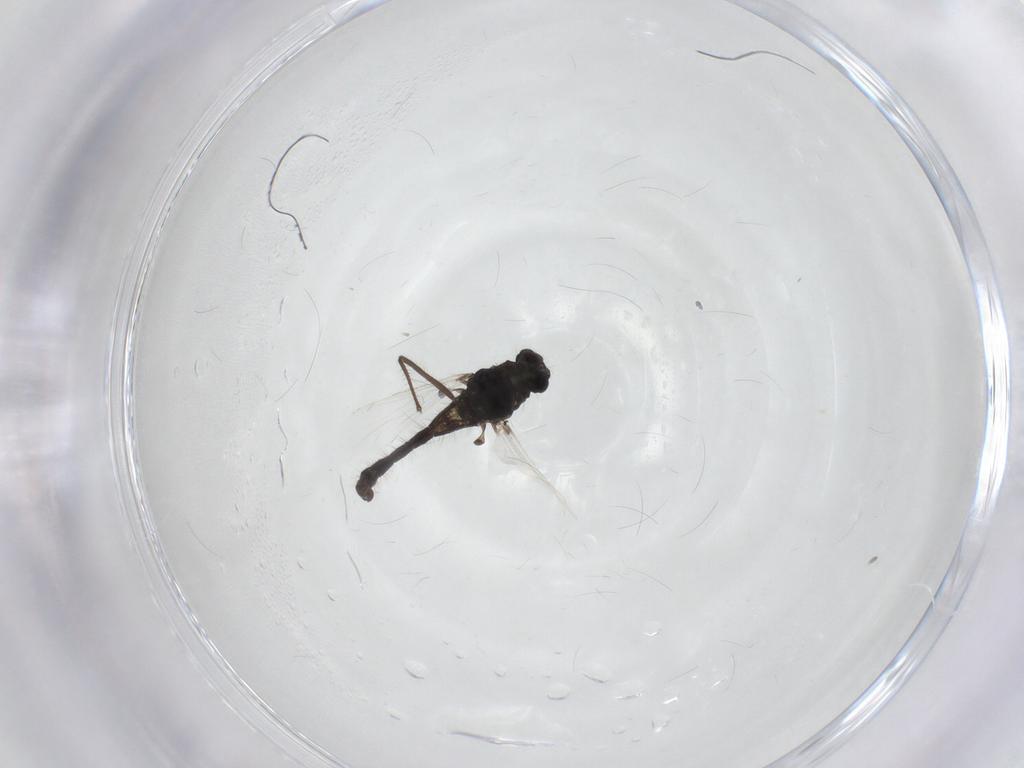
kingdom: Animalia
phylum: Arthropoda
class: Insecta
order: Diptera
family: Chironomidae
